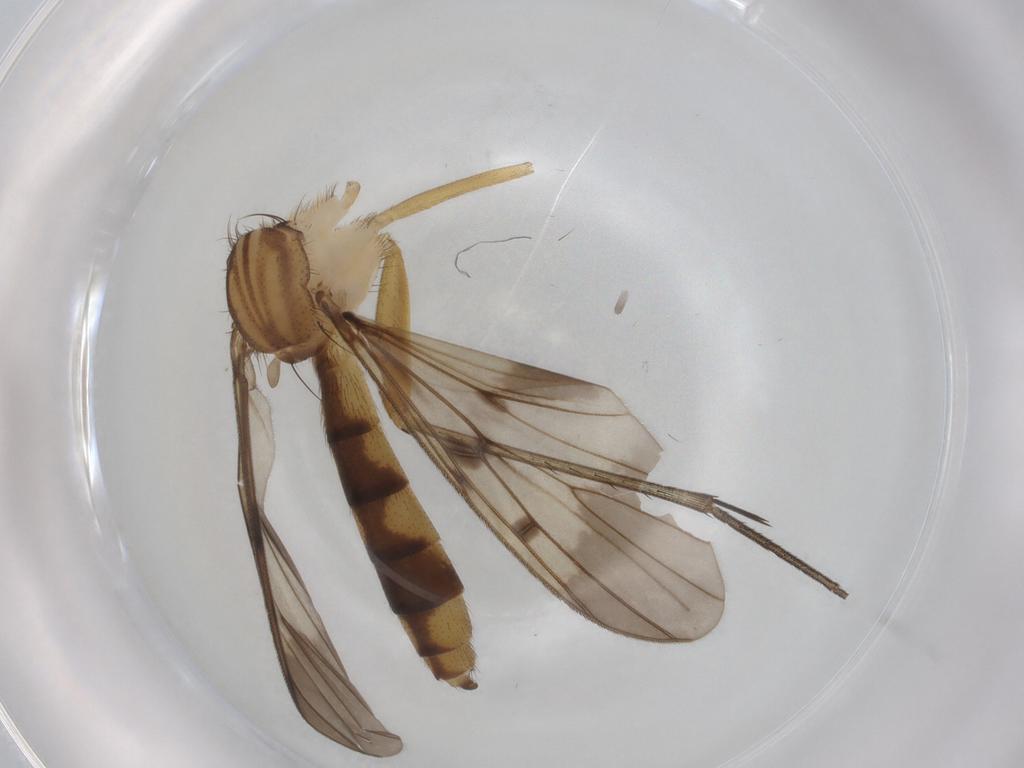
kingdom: Animalia
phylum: Arthropoda
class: Insecta
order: Diptera
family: Mycetophilidae
